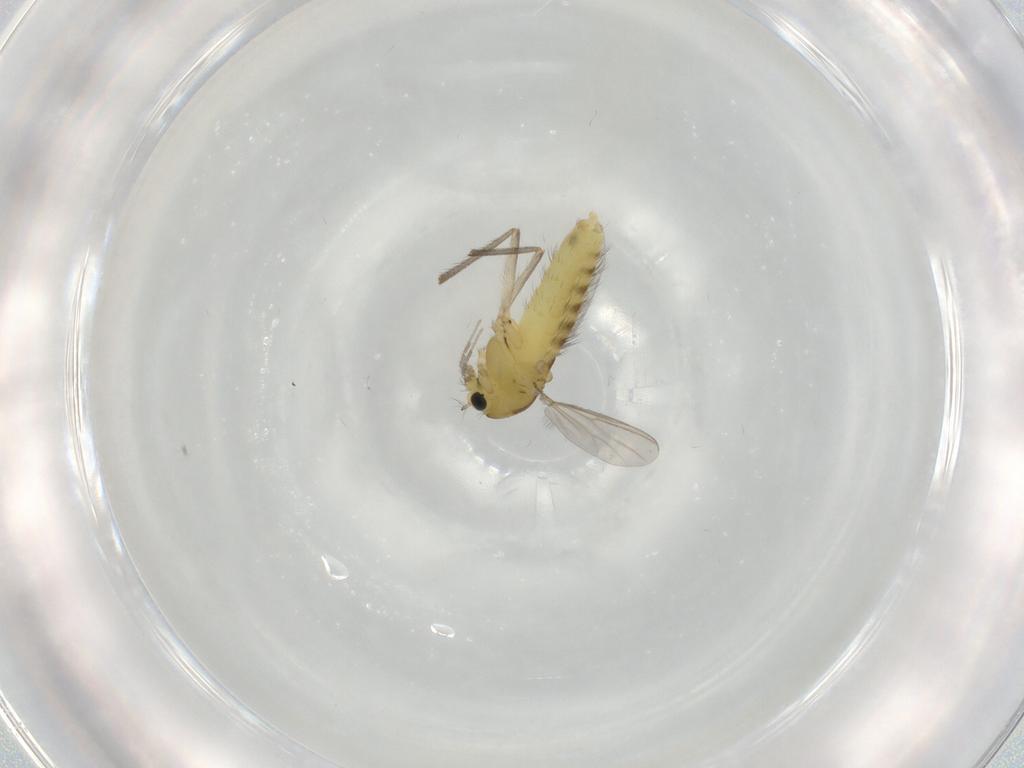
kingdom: Animalia
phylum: Arthropoda
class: Insecta
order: Diptera
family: Chironomidae
